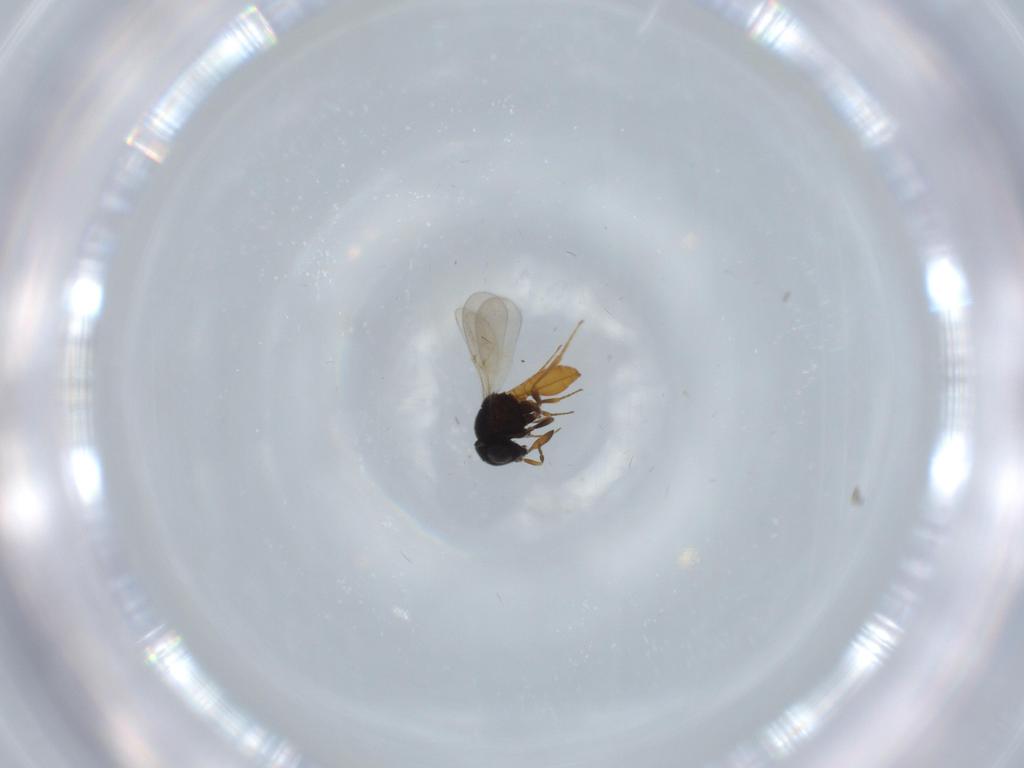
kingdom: Animalia
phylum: Arthropoda
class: Insecta
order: Hymenoptera
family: Scelionidae
